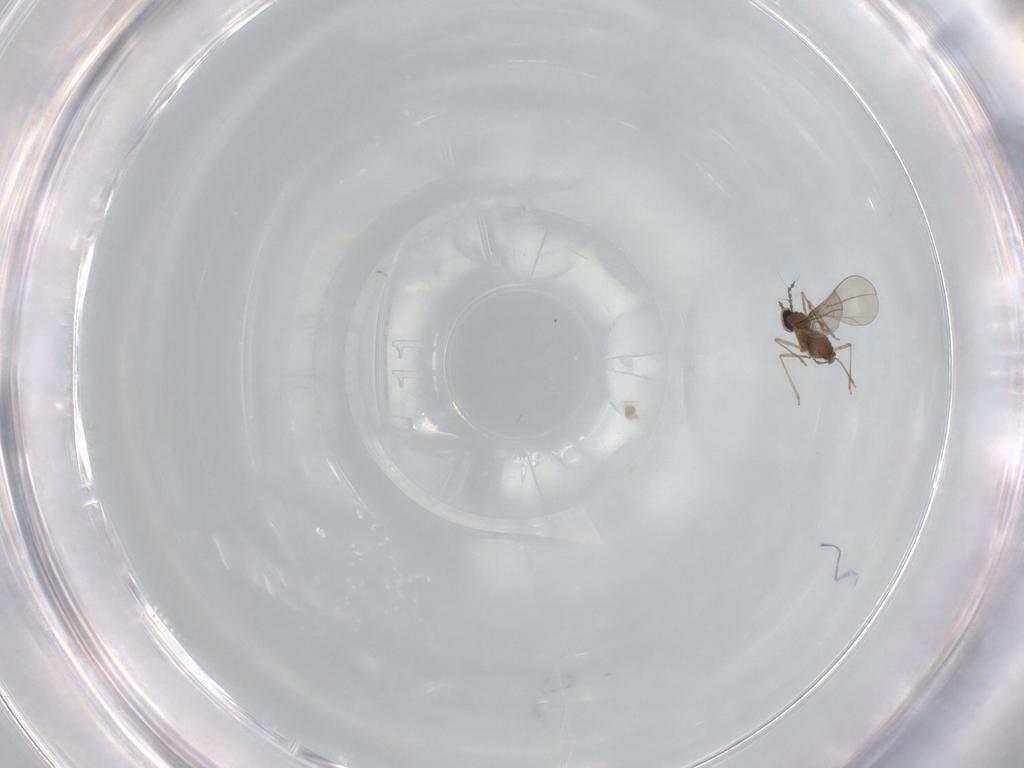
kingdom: Animalia
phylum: Arthropoda
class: Insecta
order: Diptera
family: Cecidomyiidae
